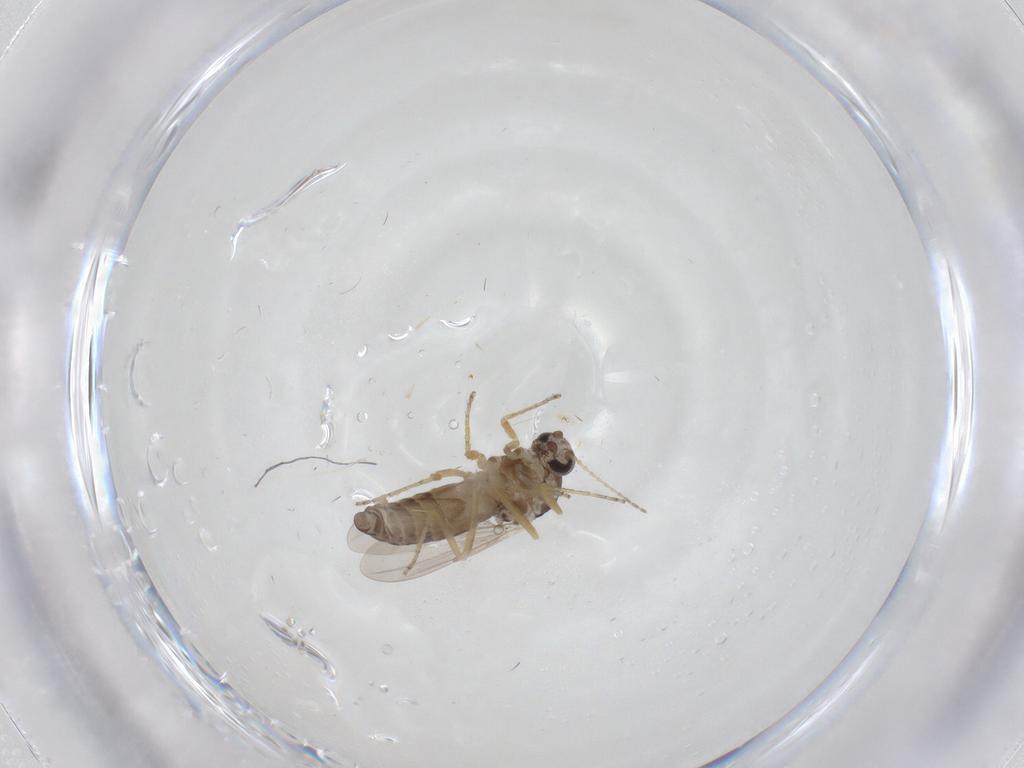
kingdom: Animalia
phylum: Arthropoda
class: Insecta
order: Diptera
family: Ceratopogonidae
